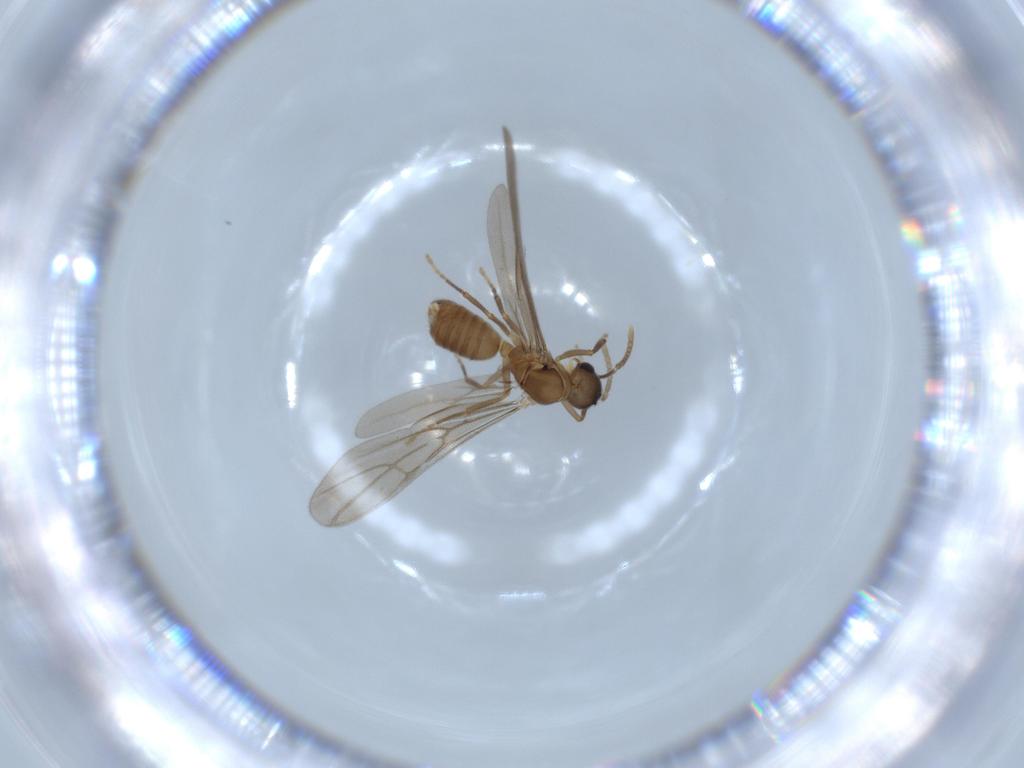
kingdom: Animalia
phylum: Arthropoda
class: Insecta
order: Hymenoptera
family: Formicidae
